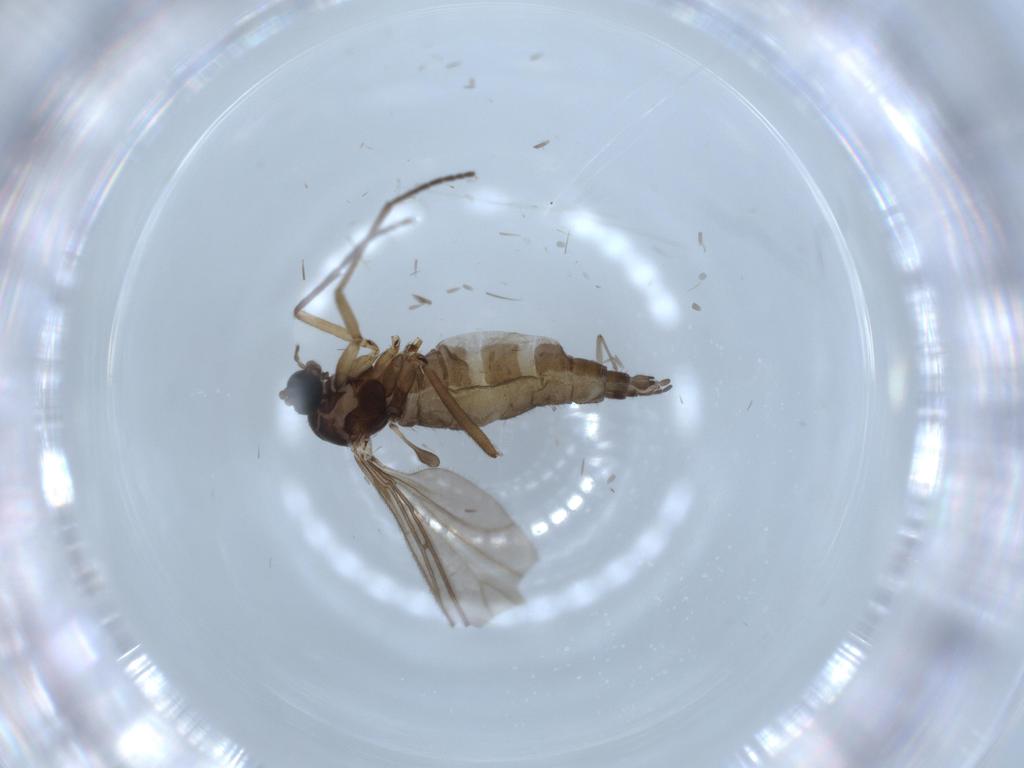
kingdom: Animalia
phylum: Arthropoda
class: Insecta
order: Diptera
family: Sciaridae
